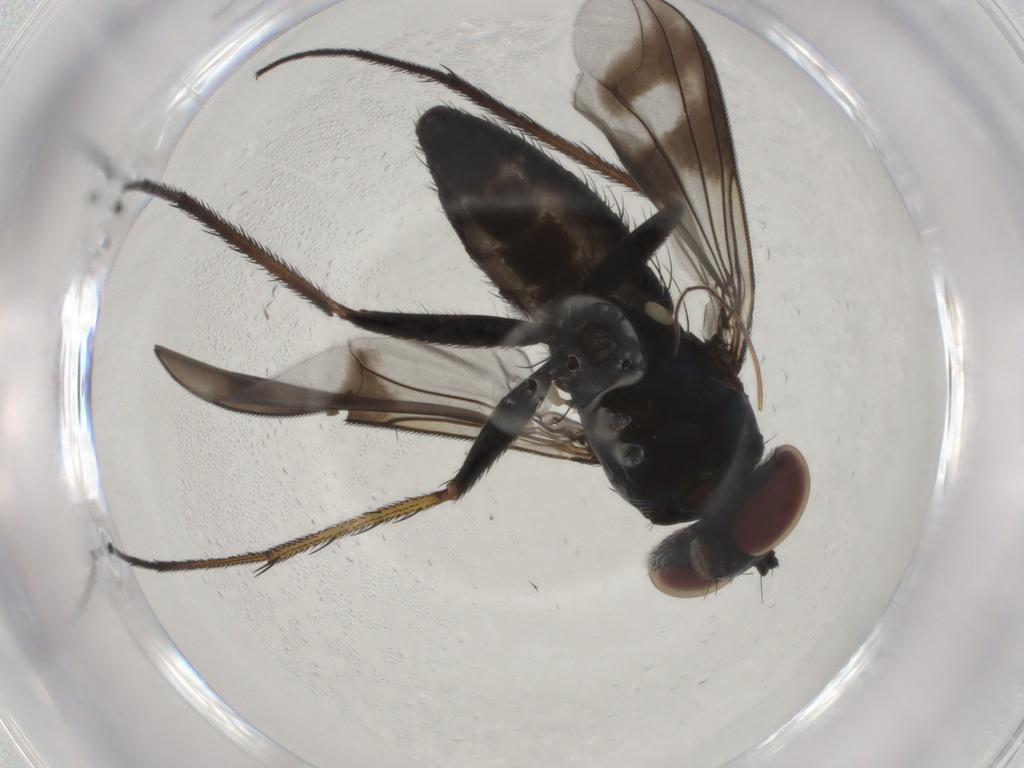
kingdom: Animalia
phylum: Arthropoda
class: Insecta
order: Diptera
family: Dolichopodidae
